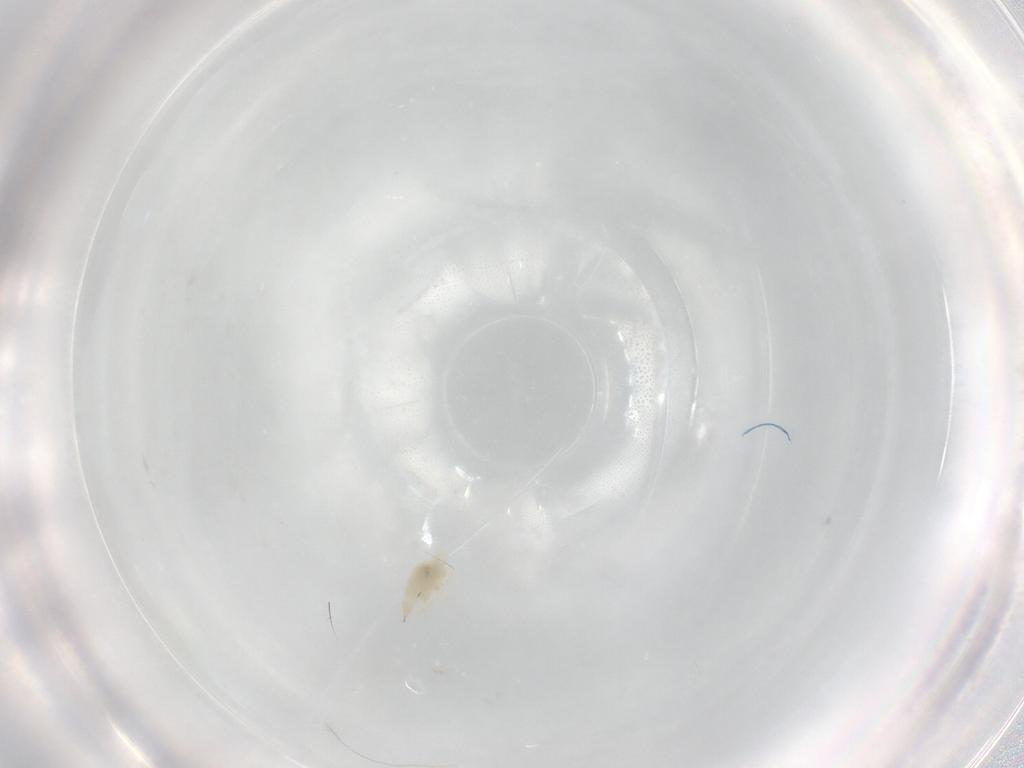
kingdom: Animalia
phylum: Arthropoda
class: Arachnida
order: Trombidiformes
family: Bdellidae
